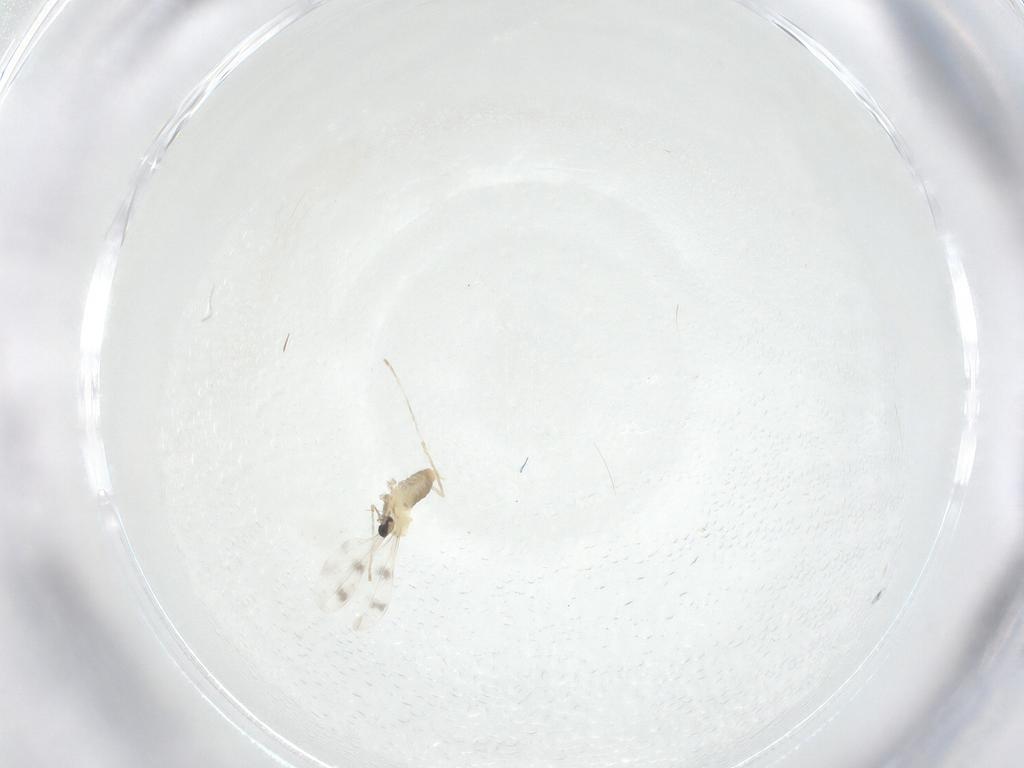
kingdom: Animalia
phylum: Arthropoda
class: Insecta
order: Diptera
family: Cecidomyiidae
